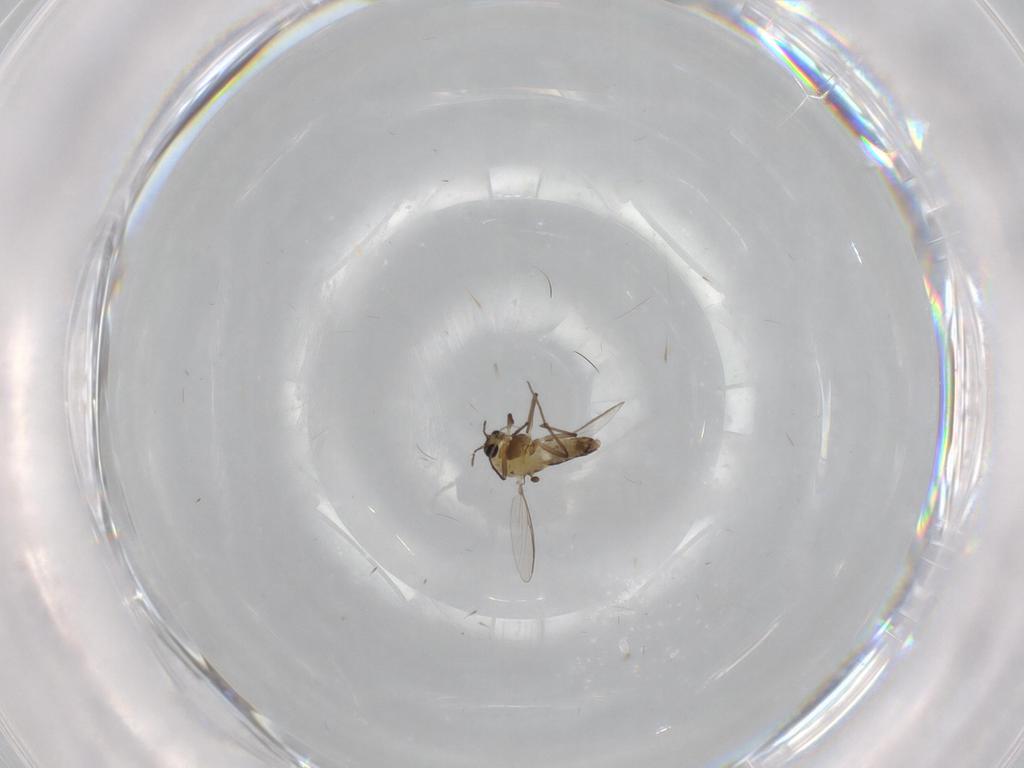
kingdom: Animalia
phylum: Arthropoda
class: Insecta
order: Diptera
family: Chironomidae
